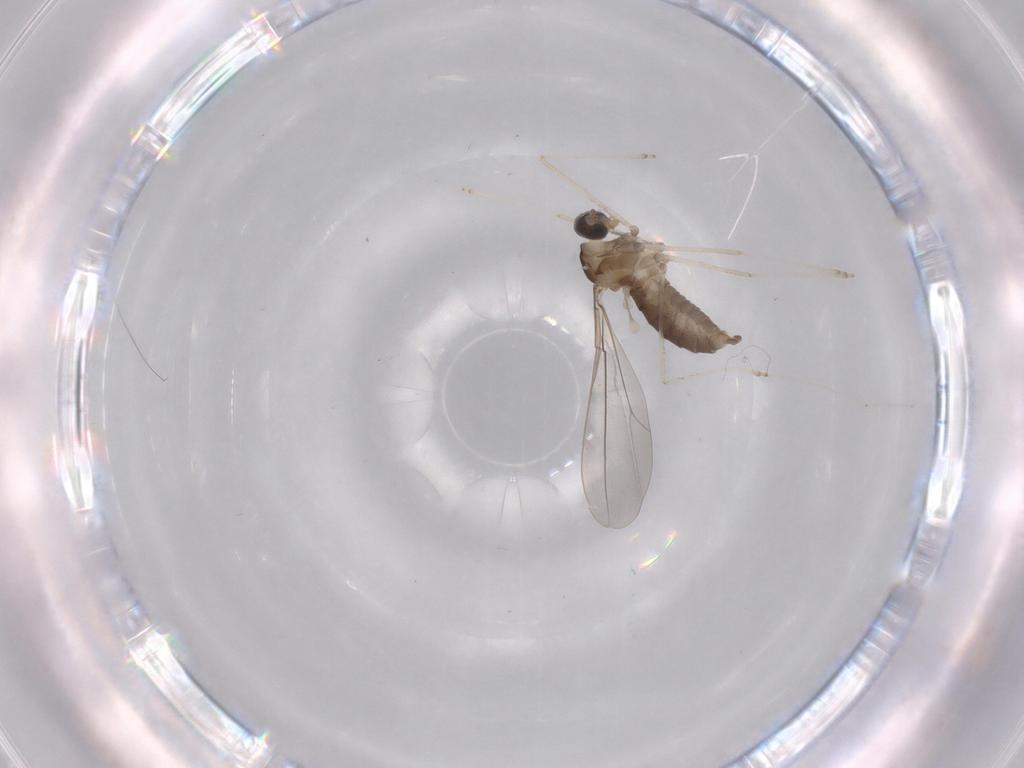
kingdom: Animalia
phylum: Arthropoda
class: Insecta
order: Diptera
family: Cecidomyiidae
